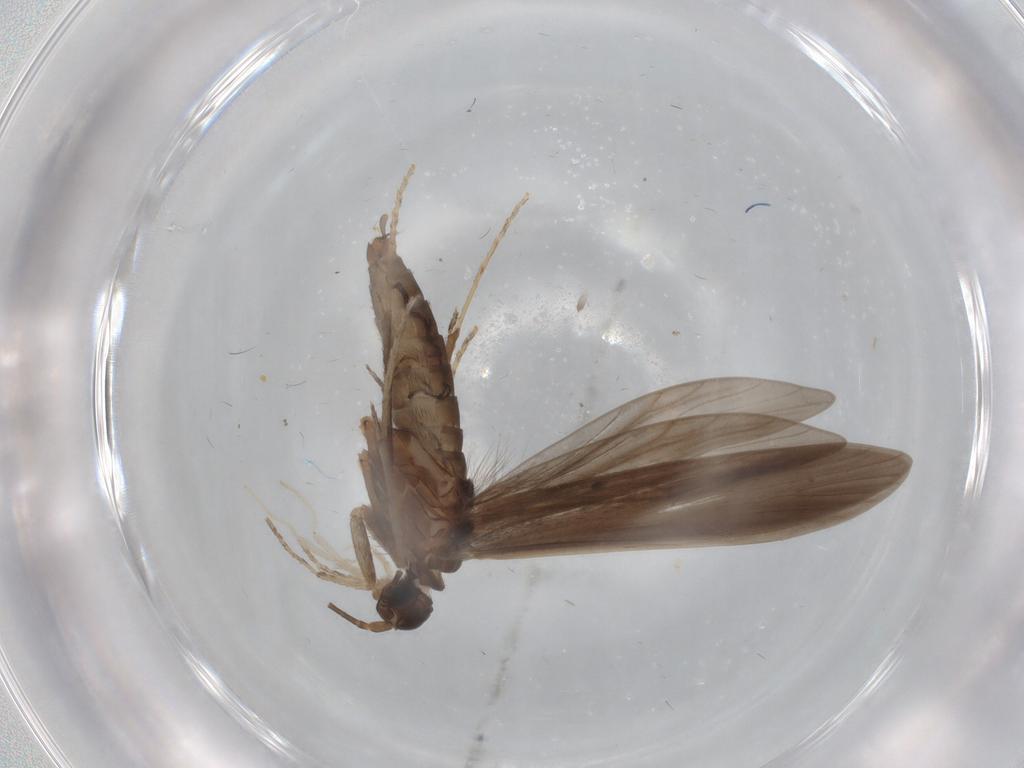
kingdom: Animalia
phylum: Arthropoda
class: Insecta
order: Trichoptera
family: Xiphocentronidae
